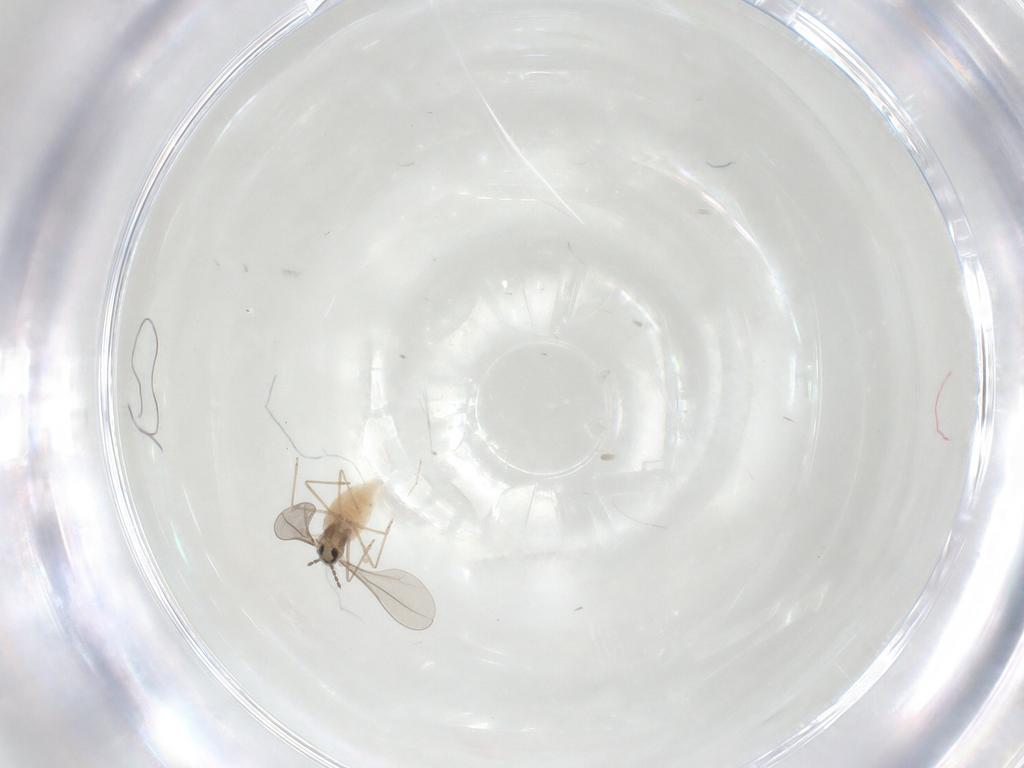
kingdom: Animalia
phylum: Arthropoda
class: Insecta
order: Diptera
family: Cecidomyiidae
